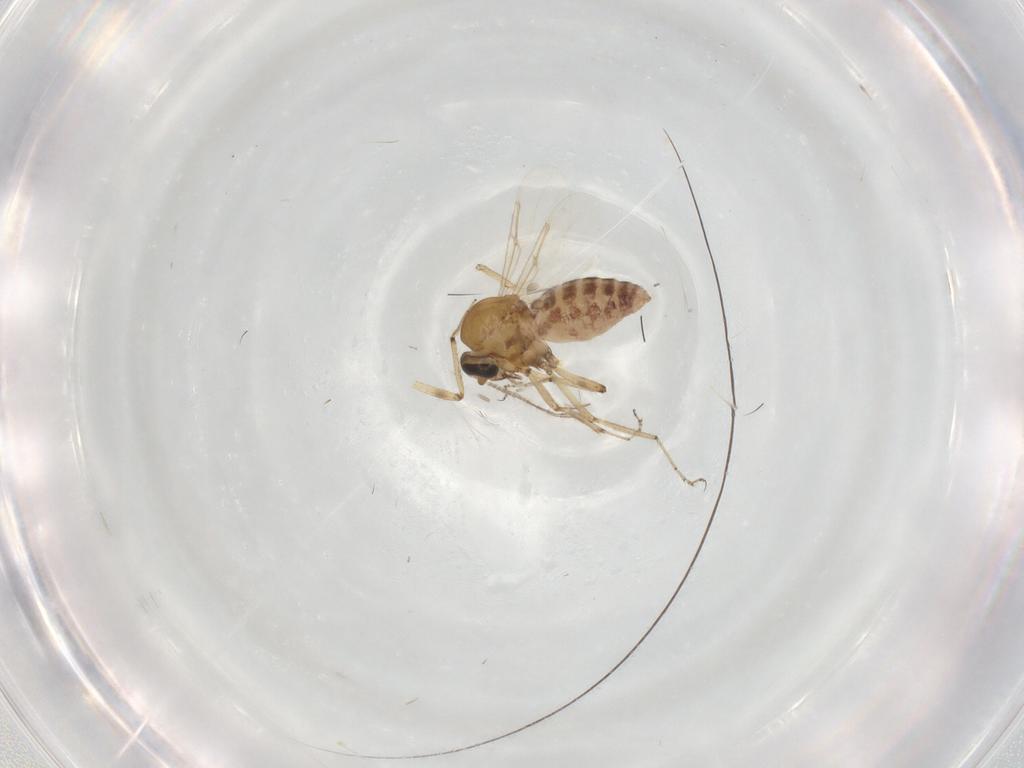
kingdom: Animalia
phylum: Arthropoda
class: Insecta
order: Diptera
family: Ceratopogonidae
